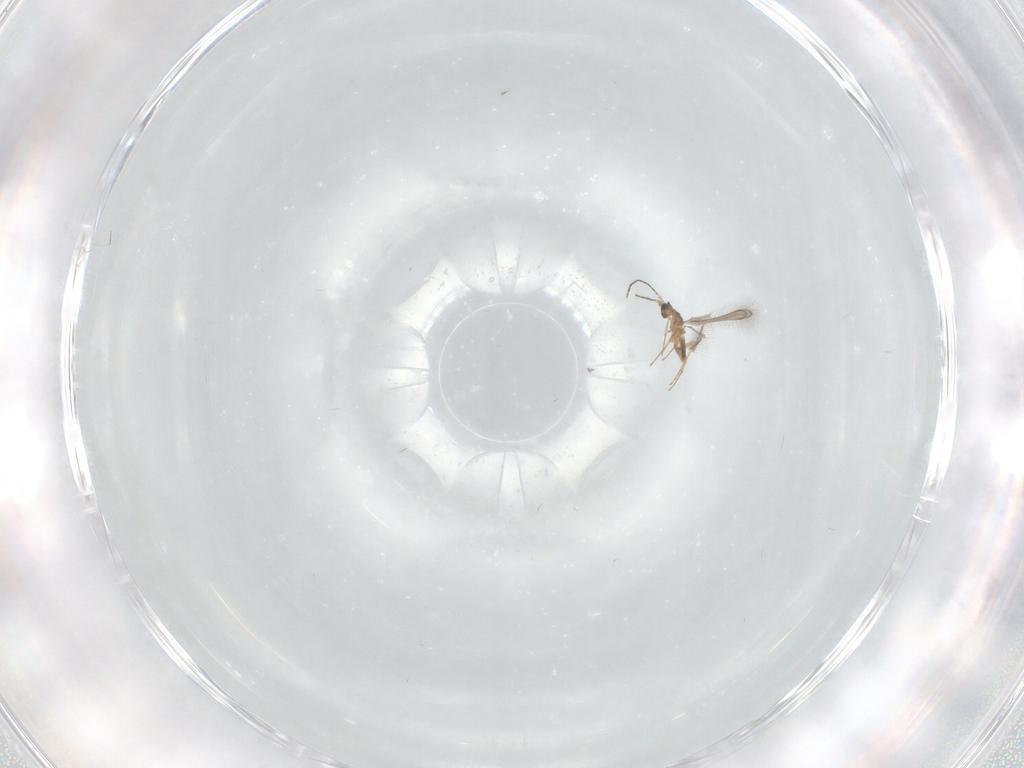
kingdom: Animalia
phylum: Arthropoda
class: Insecta
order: Hymenoptera
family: Mymaridae
